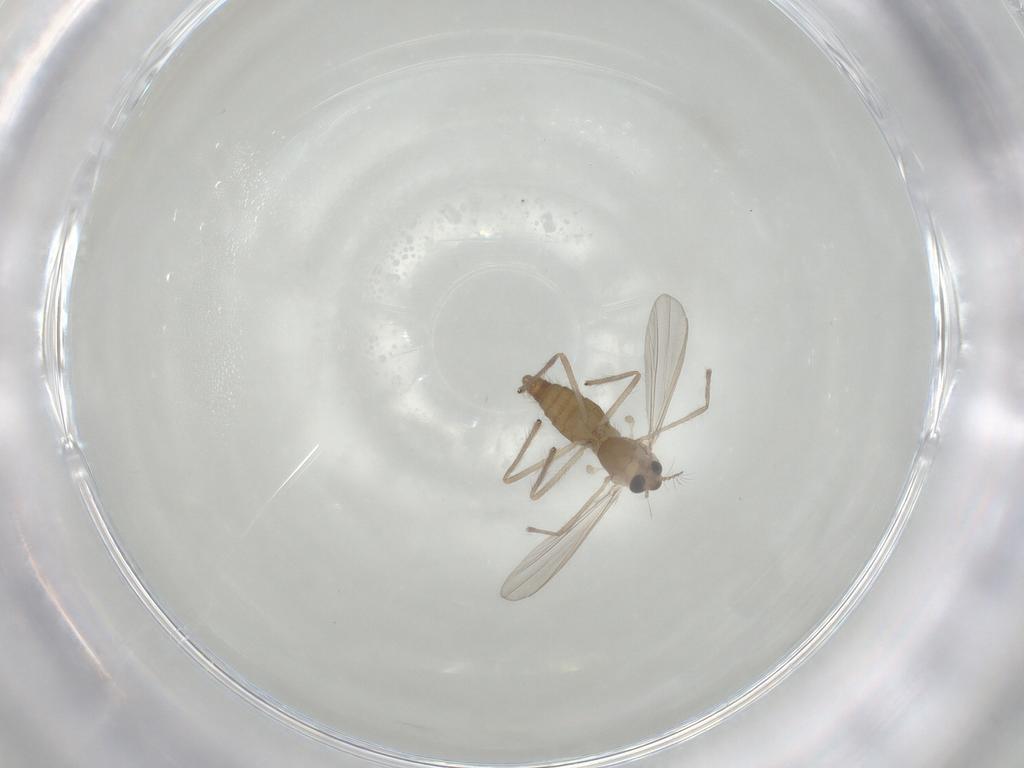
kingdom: Animalia
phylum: Arthropoda
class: Insecta
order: Diptera
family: Chironomidae
